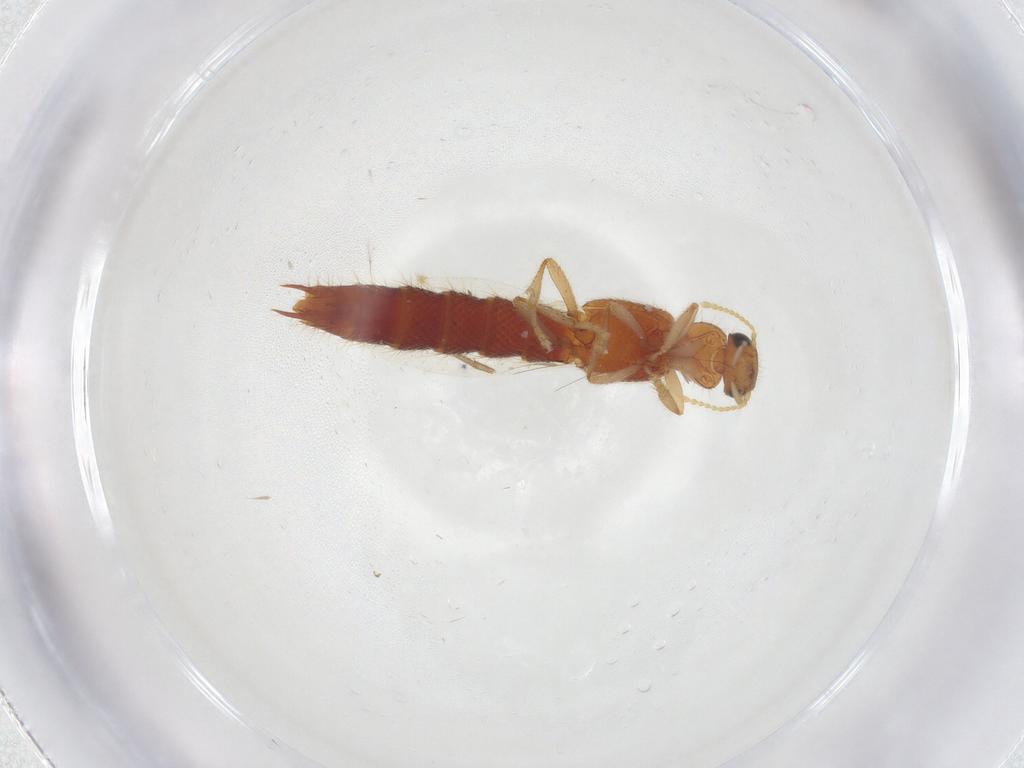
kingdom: Animalia
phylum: Arthropoda
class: Insecta
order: Coleoptera
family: Staphylinidae
